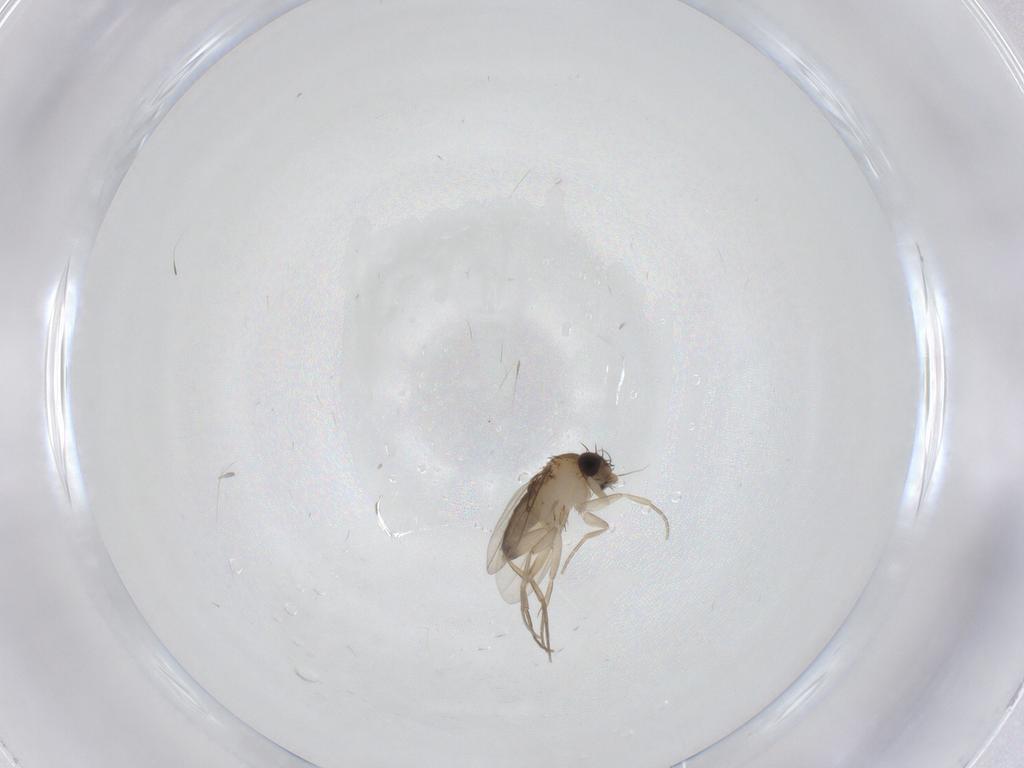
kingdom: Animalia
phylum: Arthropoda
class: Insecta
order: Diptera
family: Phoridae
